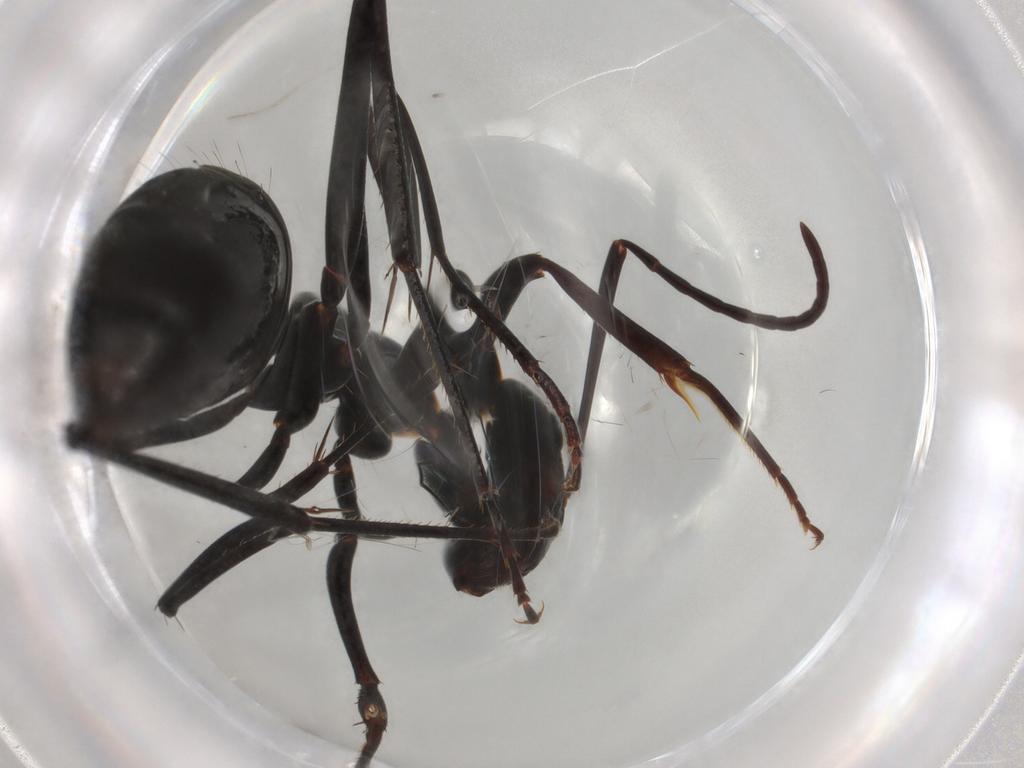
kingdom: Animalia
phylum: Arthropoda
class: Insecta
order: Hymenoptera
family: Formicidae
